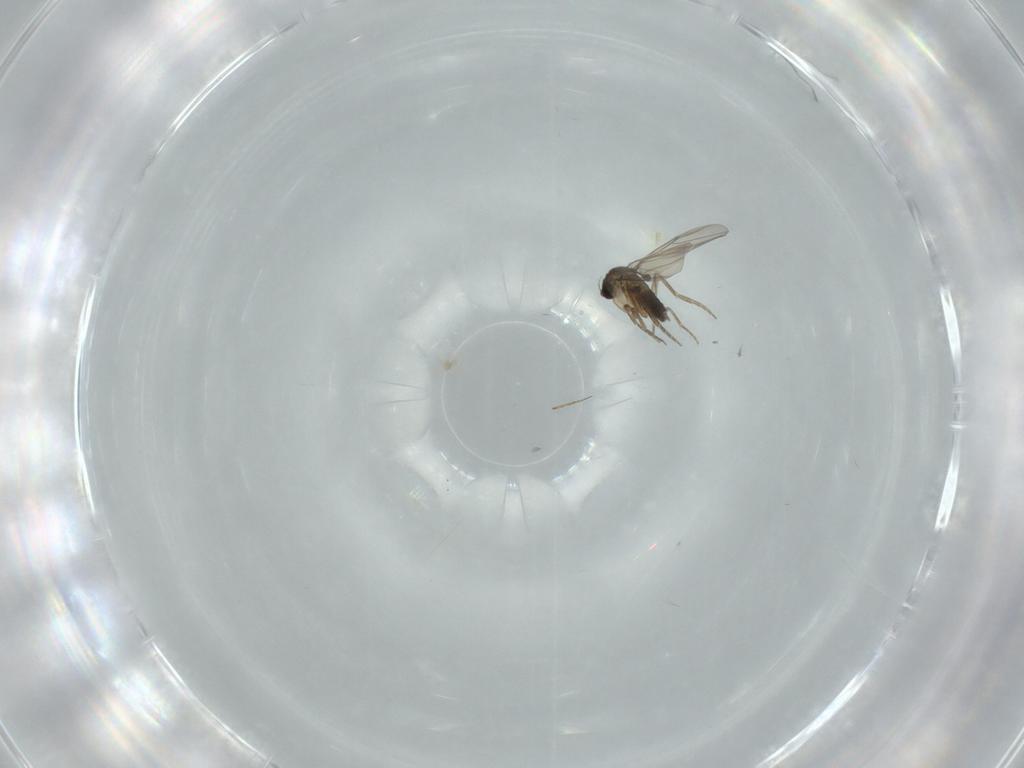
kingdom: Animalia
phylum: Arthropoda
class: Insecta
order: Diptera
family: Phoridae
